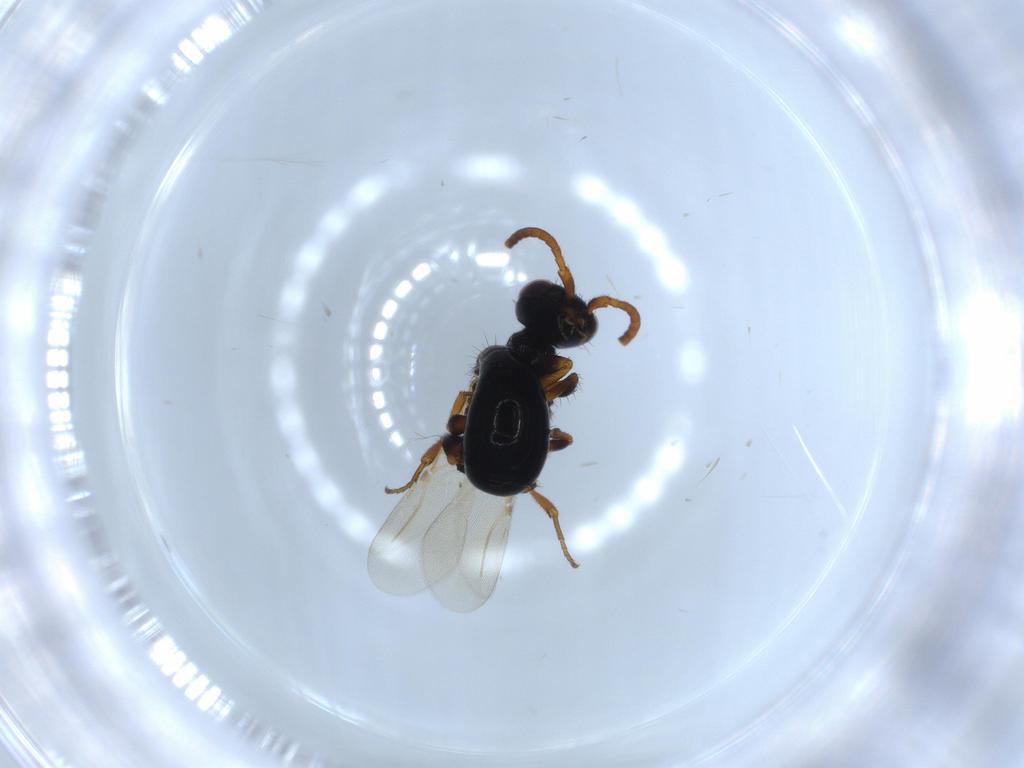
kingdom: Animalia
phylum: Arthropoda
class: Insecta
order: Hymenoptera
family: Bethylidae
